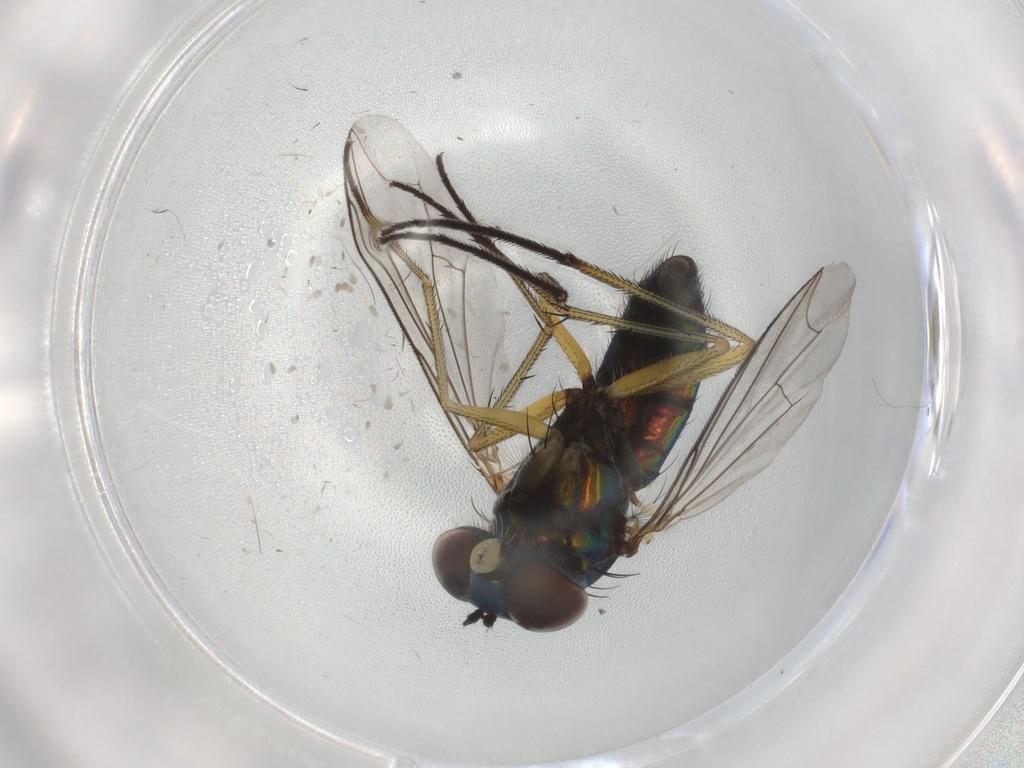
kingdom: Animalia
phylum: Arthropoda
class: Insecta
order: Diptera
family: Dolichopodidae
